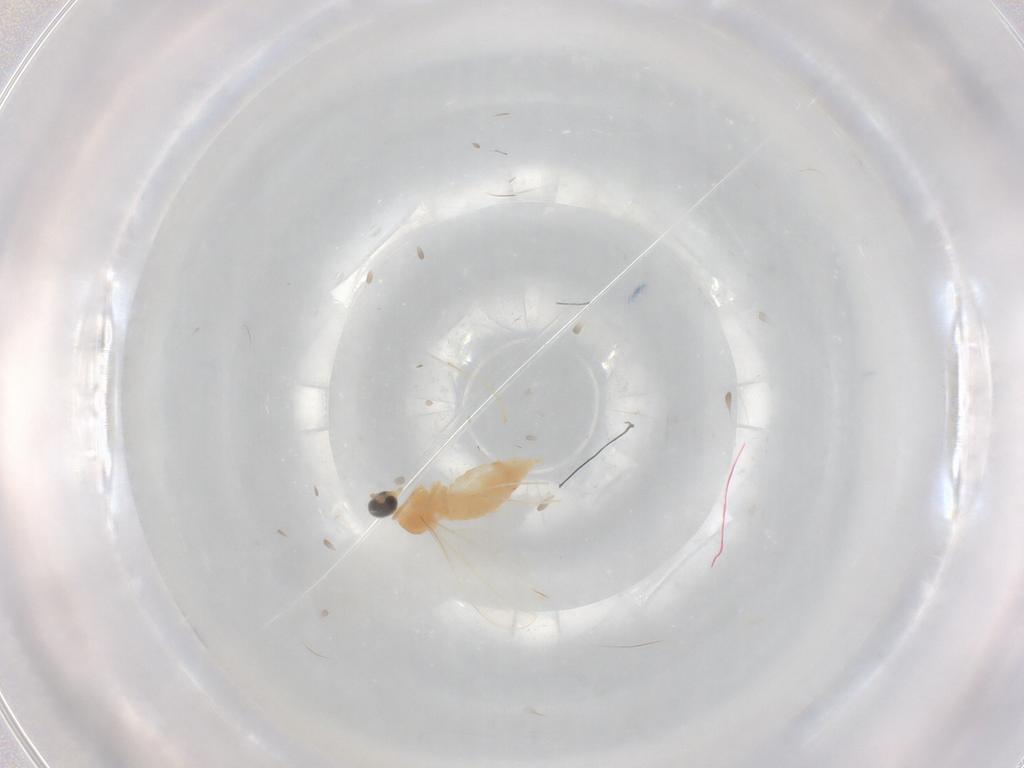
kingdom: Animalia
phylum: Arthropoda
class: Insecta
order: Diptera
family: Cecidomyiidae
